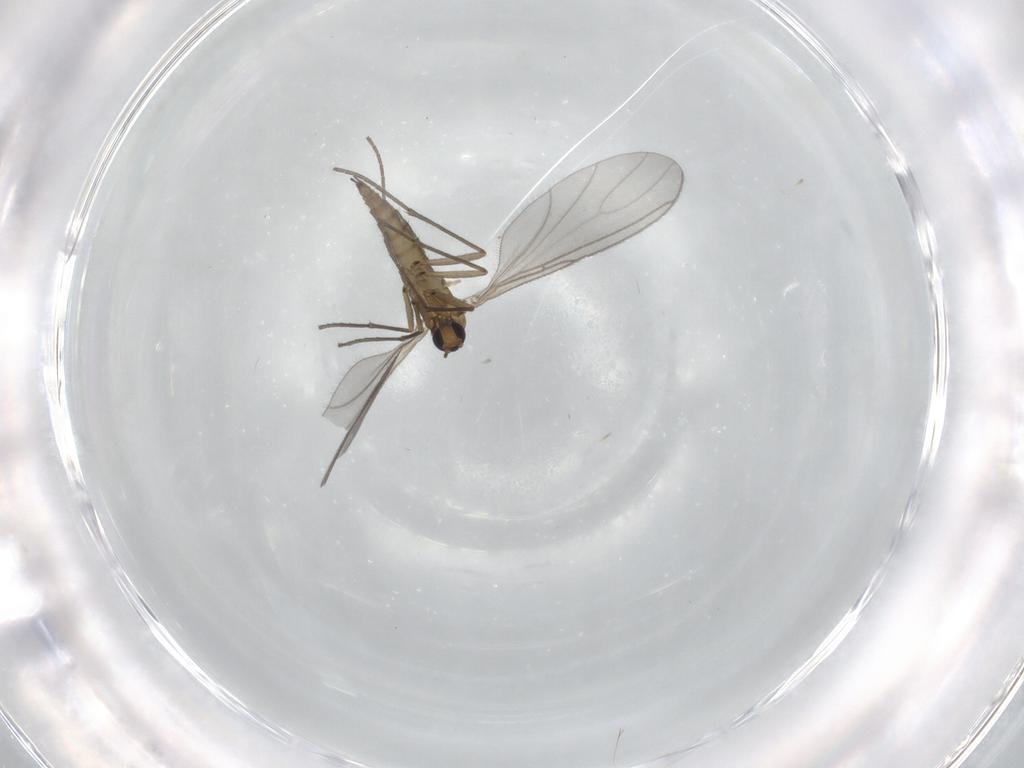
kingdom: Animalia
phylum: Arthropoda
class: Insecta
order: Diptera
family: Sciaridae
